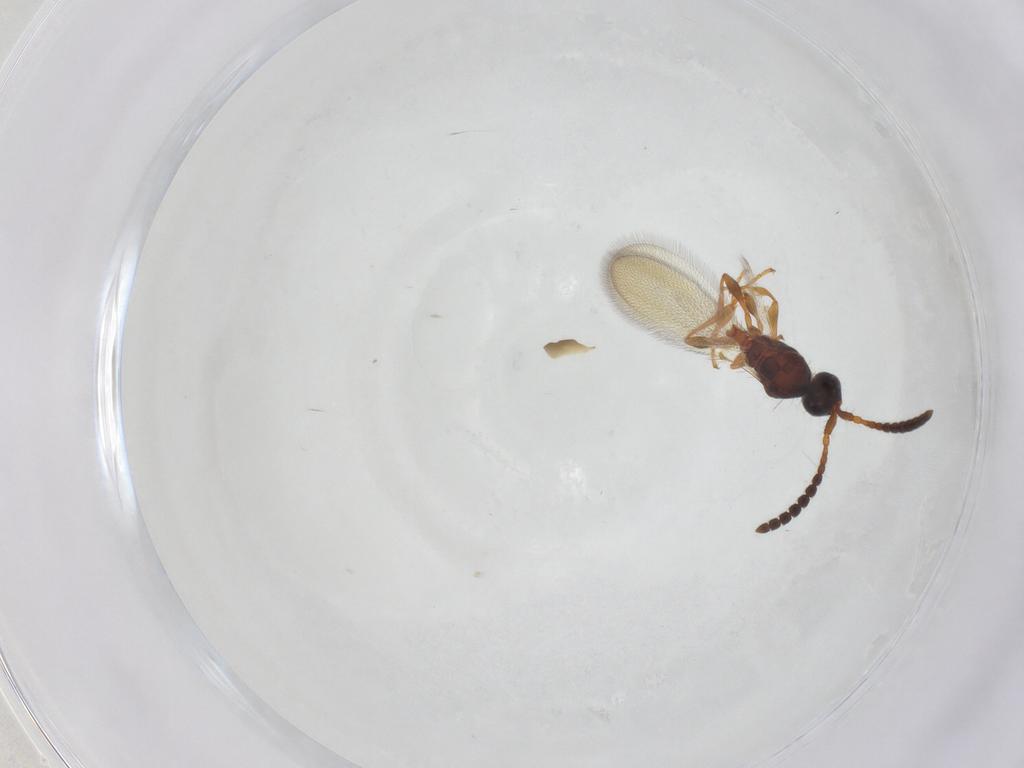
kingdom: Animalia
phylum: Arthropoda
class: Insecta
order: Hymenoptera
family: Diapriidae
